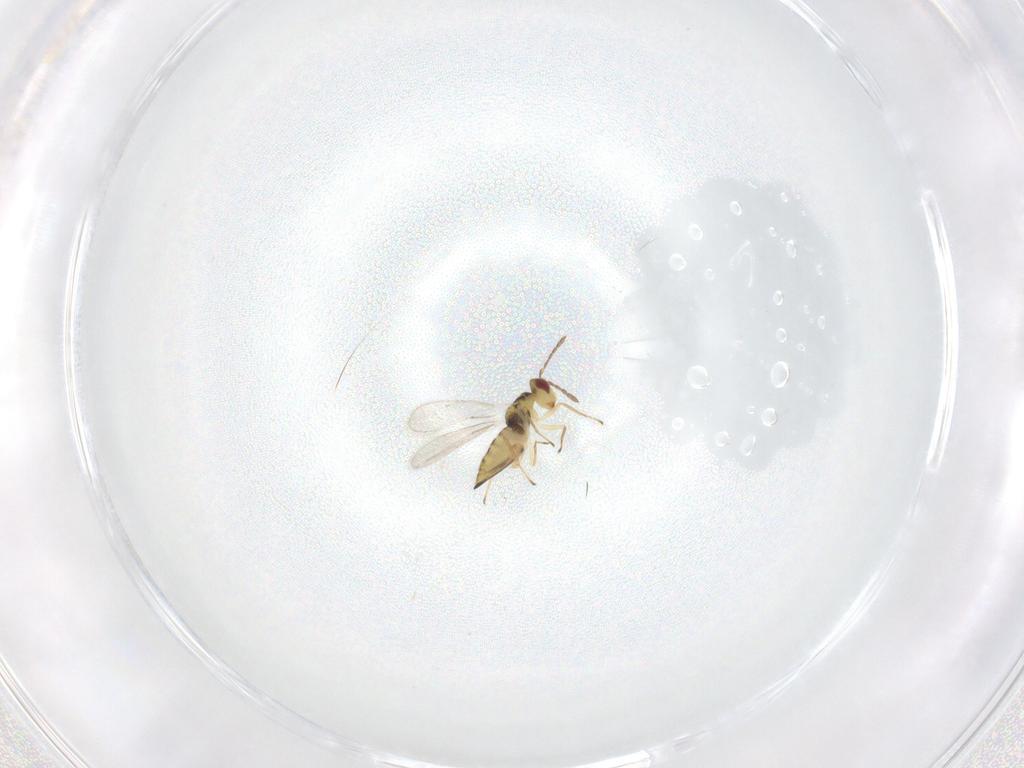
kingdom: Animalia
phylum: Arthropoda
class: Insecta
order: Hymenoptera
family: Eulophidae
